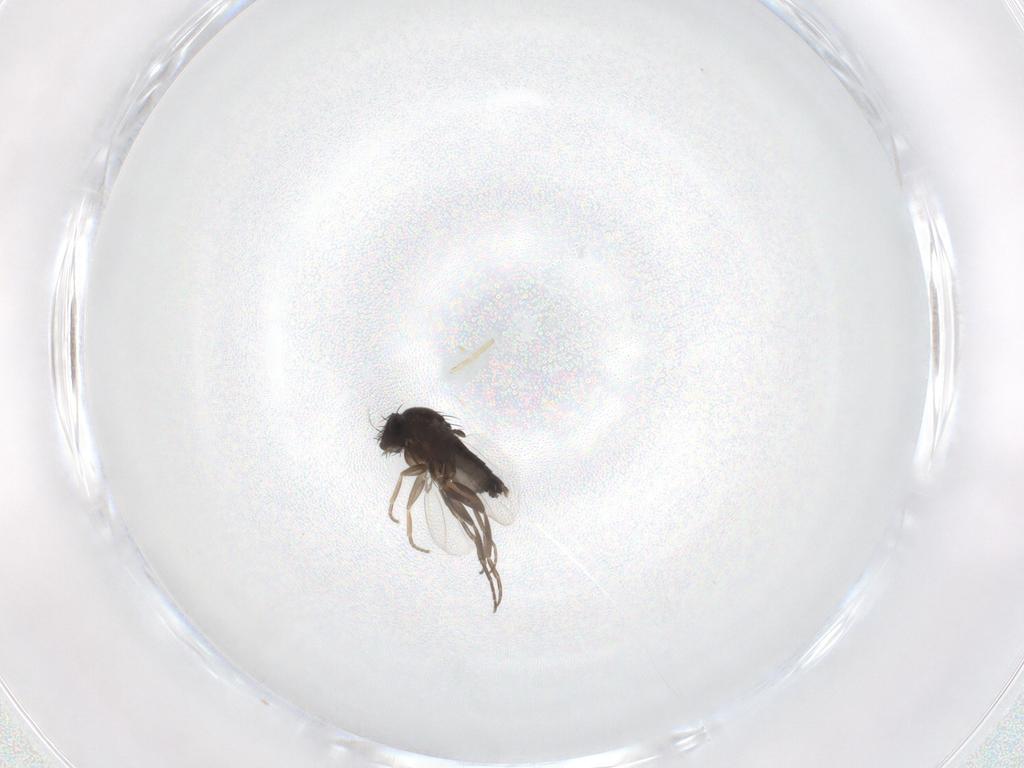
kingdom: Animalia
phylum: Arthropoda
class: Insecta
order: Diptera
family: Phoridae
